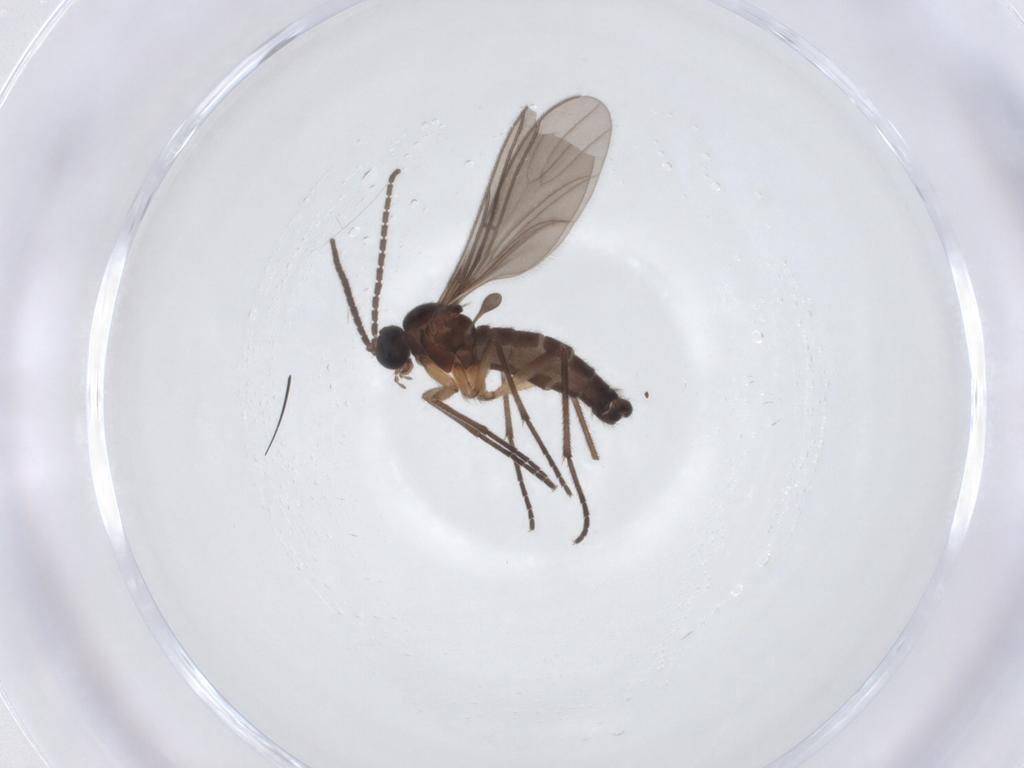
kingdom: Animalia
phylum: Arthropoda
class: Insecta
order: Diptera
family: Sciaridae
